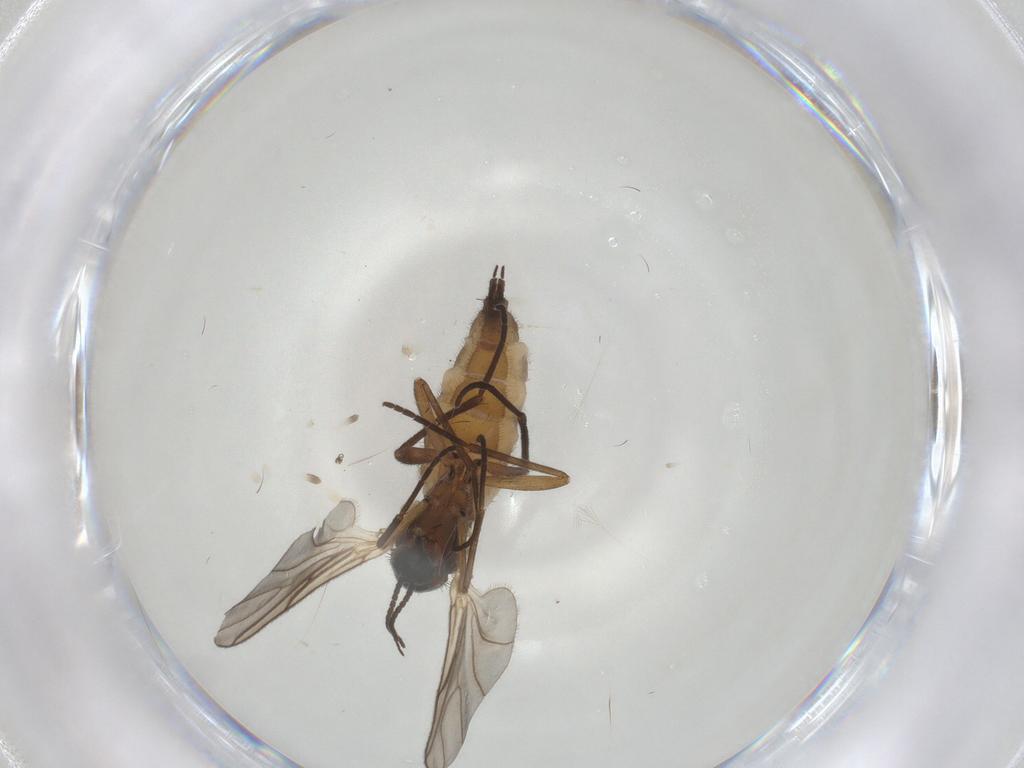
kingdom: Animalia
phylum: Arthropoda
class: Insecta
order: Diptera
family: Sciaridae
